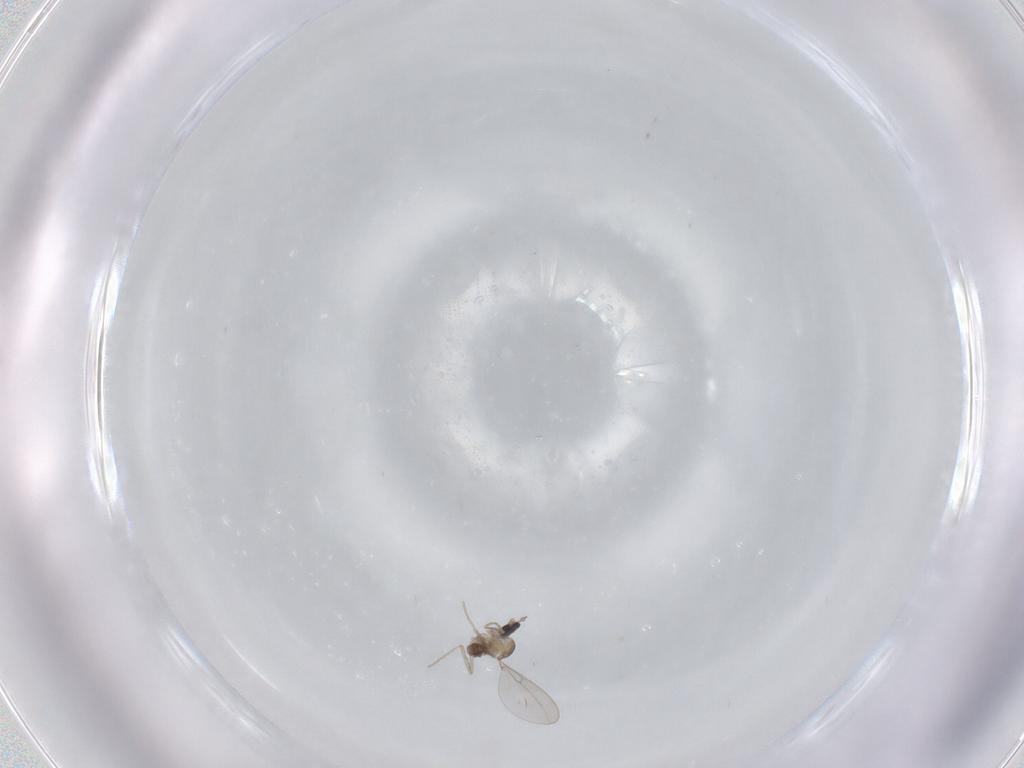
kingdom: Animalia
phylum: Arthropoda
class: Insecta
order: Diptera
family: Cecidomyiidae
